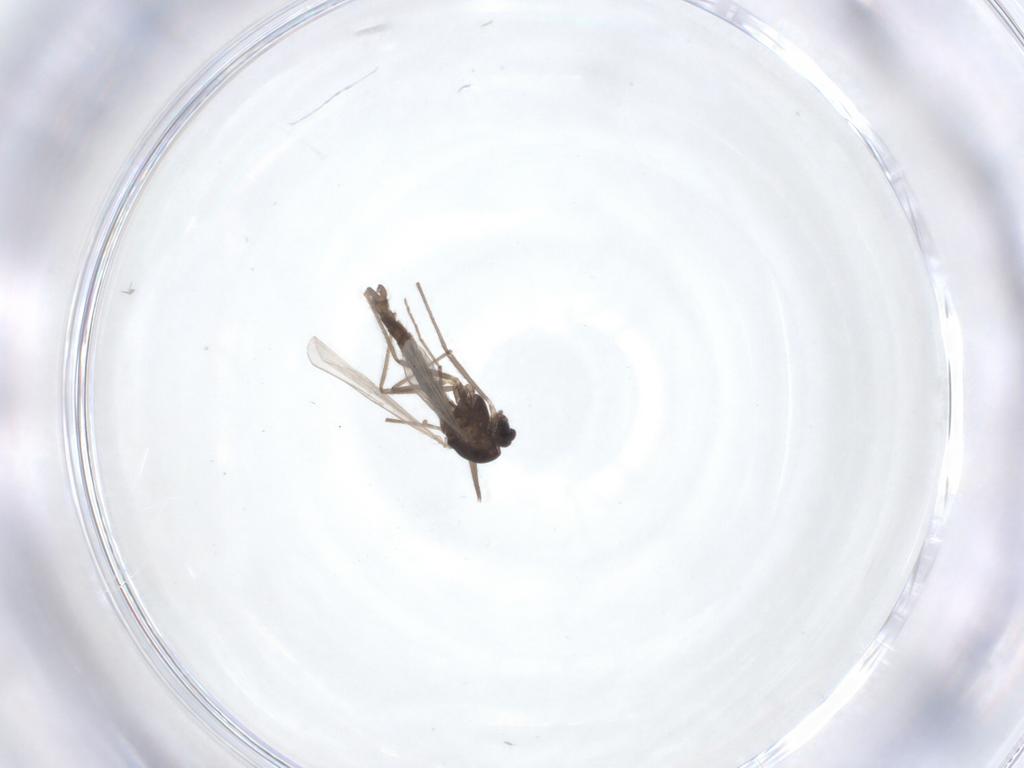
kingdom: Animalia
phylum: Arthropoda
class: Insecta
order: Diptera
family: Chironomidae
